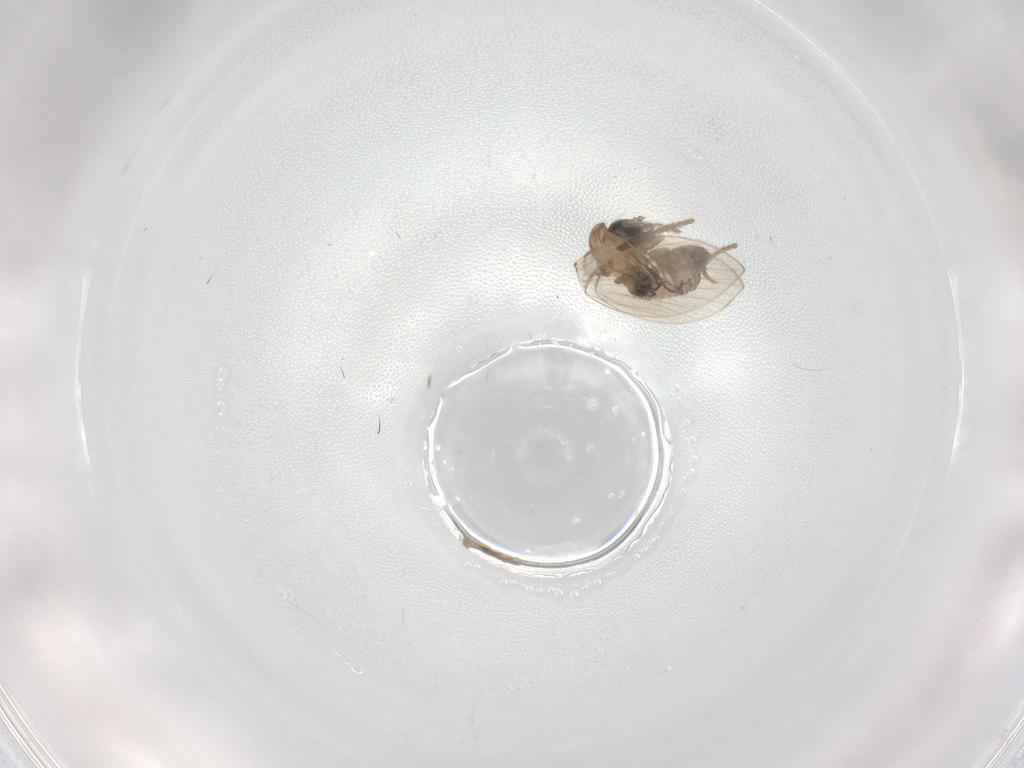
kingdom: Animalia
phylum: Arthropoda
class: Insecta
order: Diptera
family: Psychodidae
